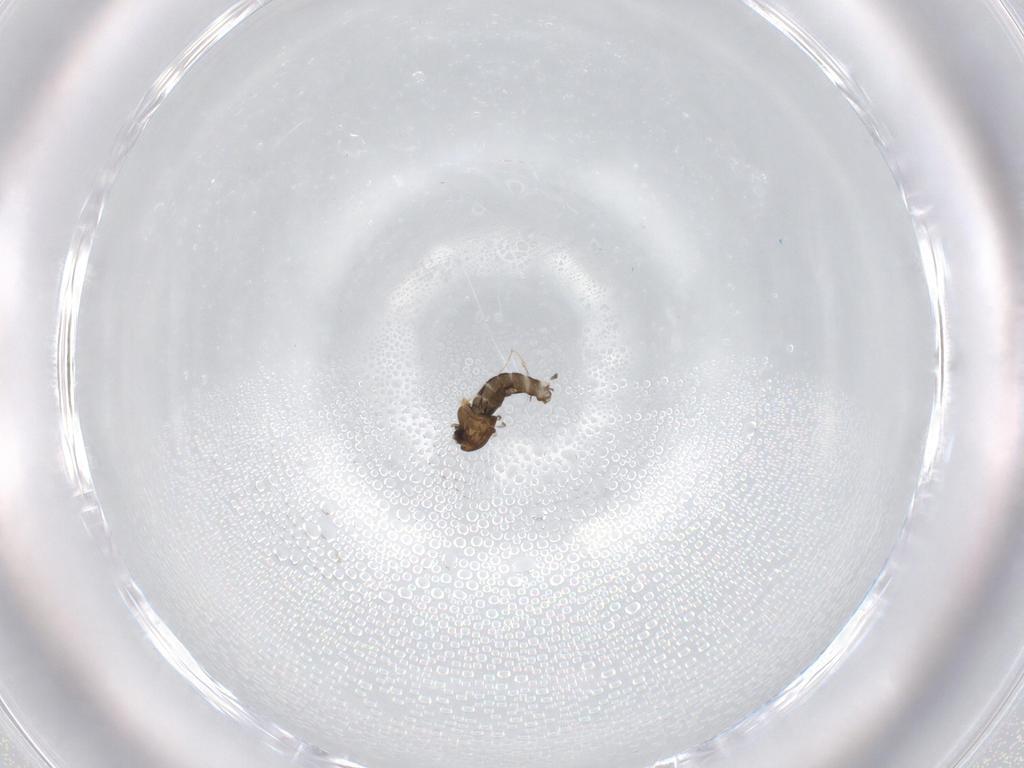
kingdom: Animalia
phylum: Arthropoda
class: Insecta
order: Diptera
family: Chironomidae
